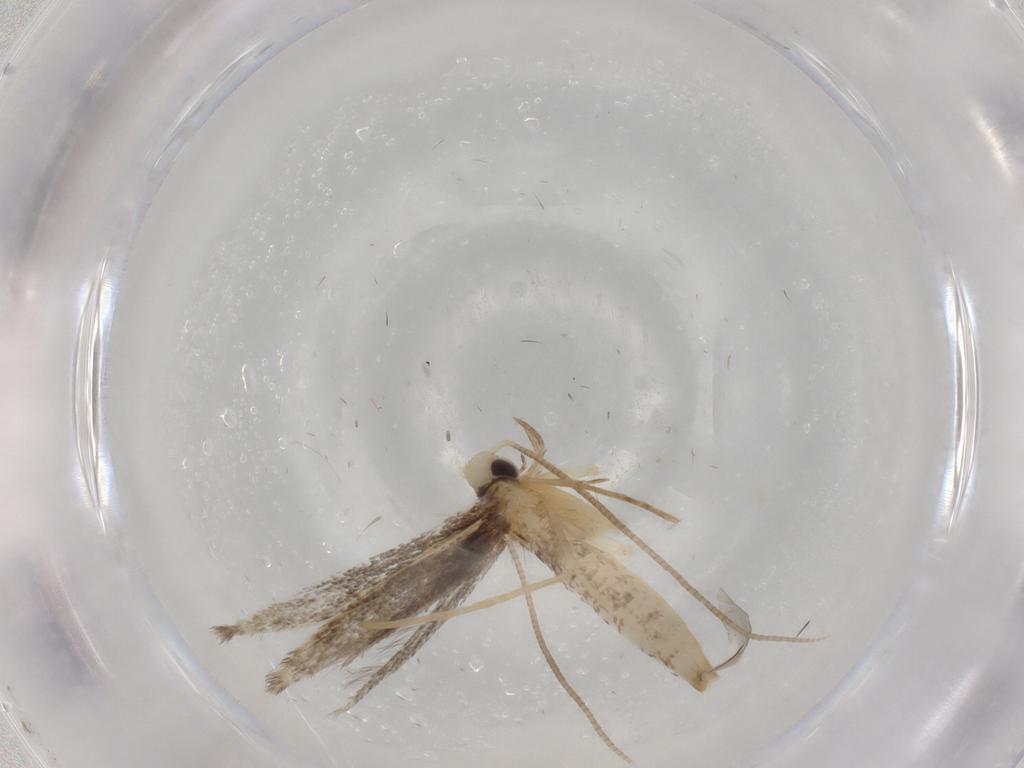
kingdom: Animalia
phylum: Arthropoda
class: Insecta
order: Lepidoptera
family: Gracillariidae
